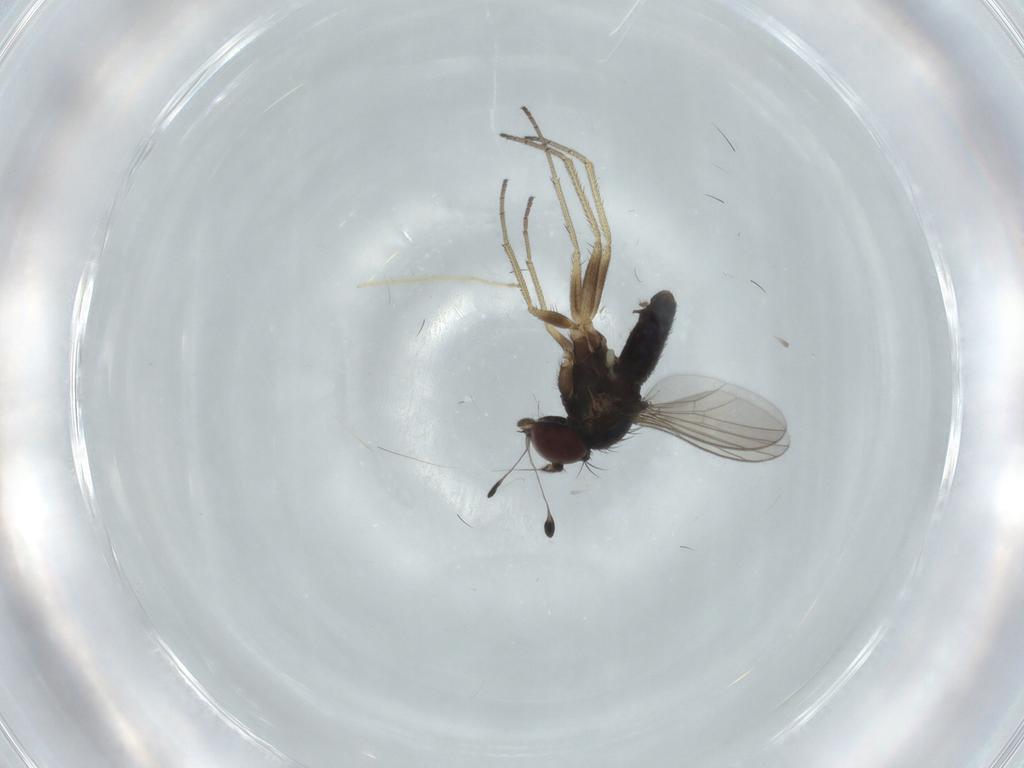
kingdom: Animalia
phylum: Arthropoda
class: Insecta
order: Diptera
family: Dolichopodidae
